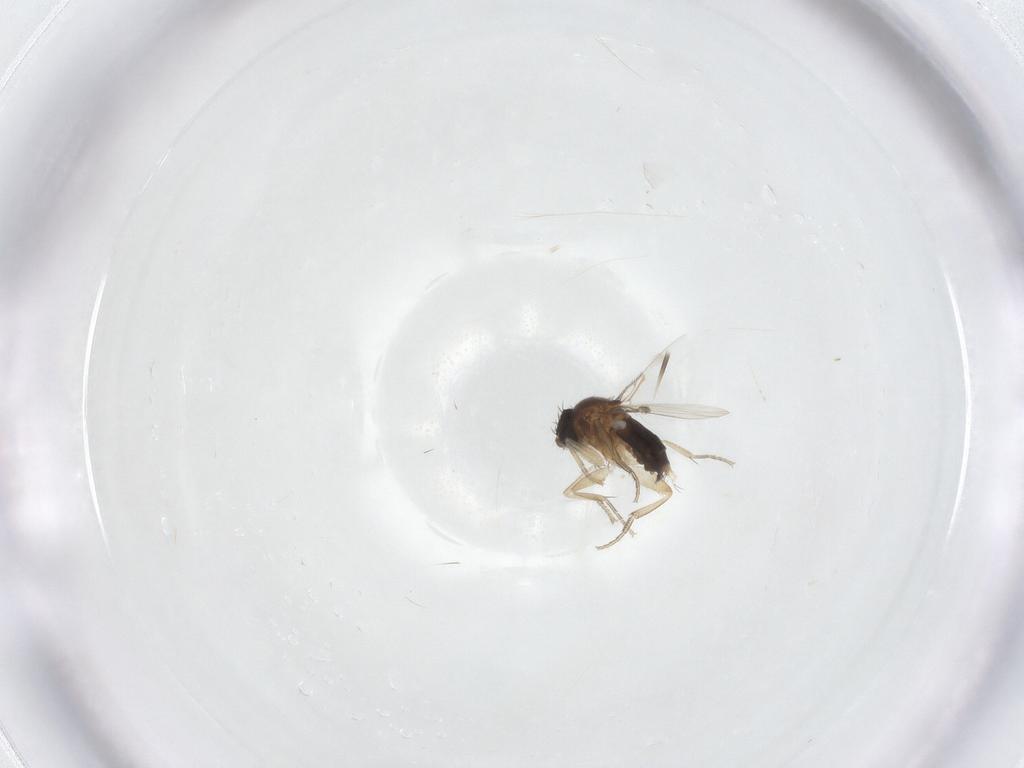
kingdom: Animalia
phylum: Arthropoda
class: Insecta
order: Diptera
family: Phoridae
